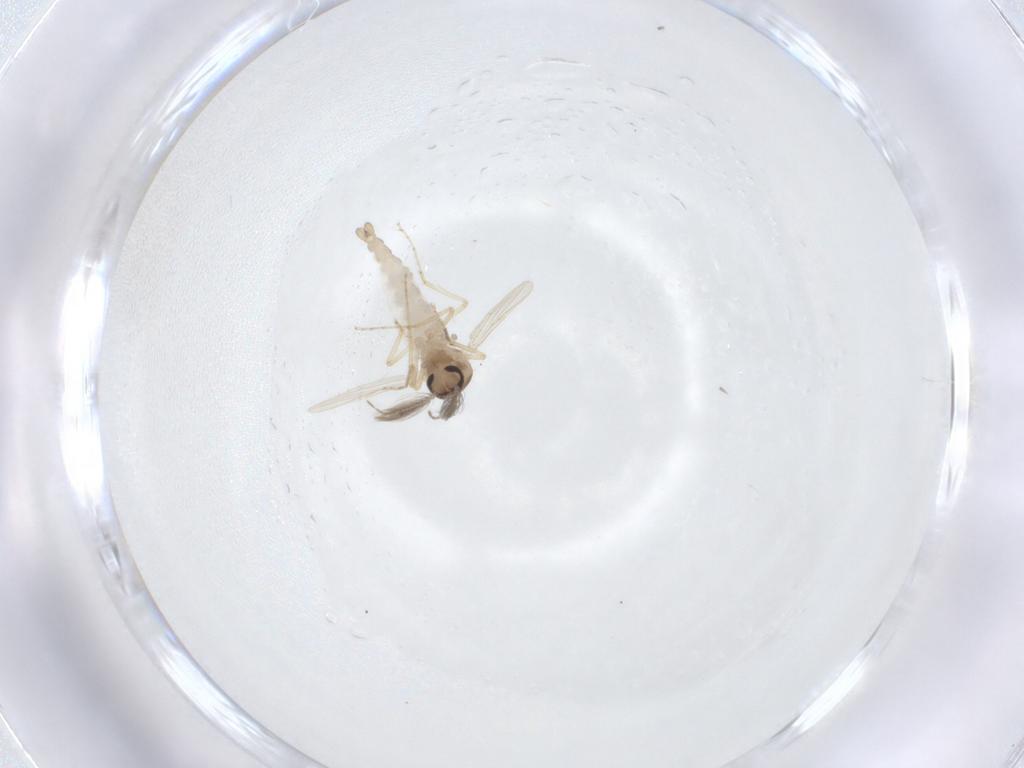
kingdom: Animalia
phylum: Arthropoda
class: Insecta
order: Diptera
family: Ceratopogonidae
